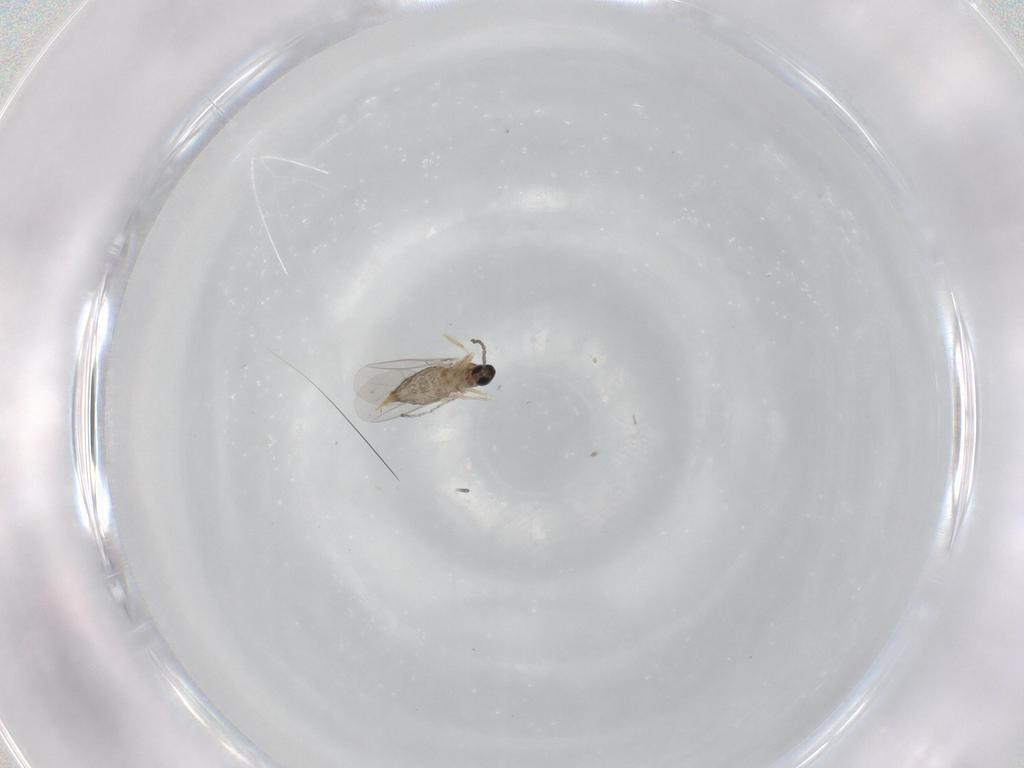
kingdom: Animalia
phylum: Arthropoda
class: Insecta
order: Diptera
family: Cecidomyiidae
